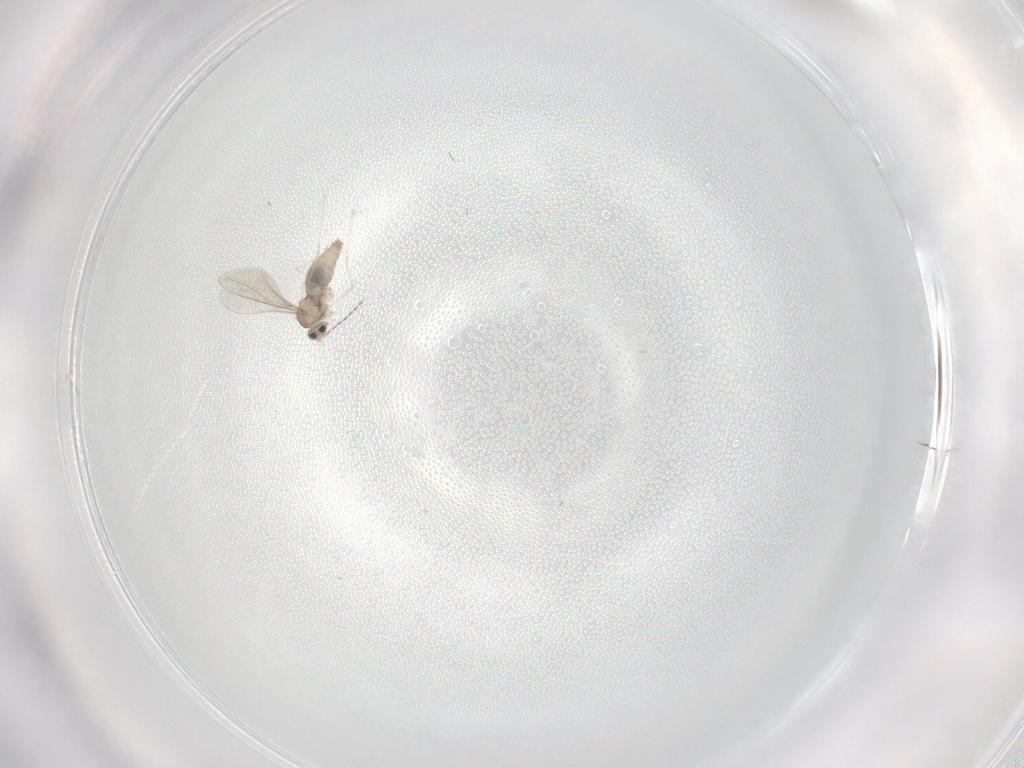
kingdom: Animalia
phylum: Arthropoda
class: Insecta
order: Diptera
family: Cecidomyiidae
